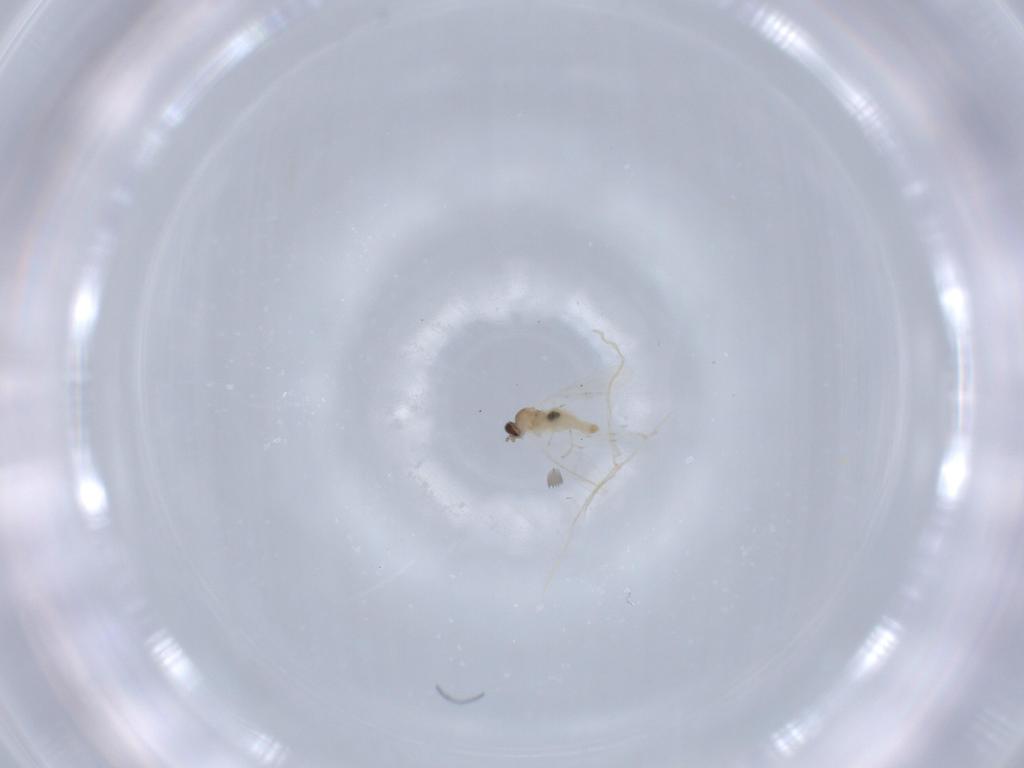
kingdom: Animalia
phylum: Arthropoda
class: Insecta
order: Diptera
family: Cecidomyiidae
